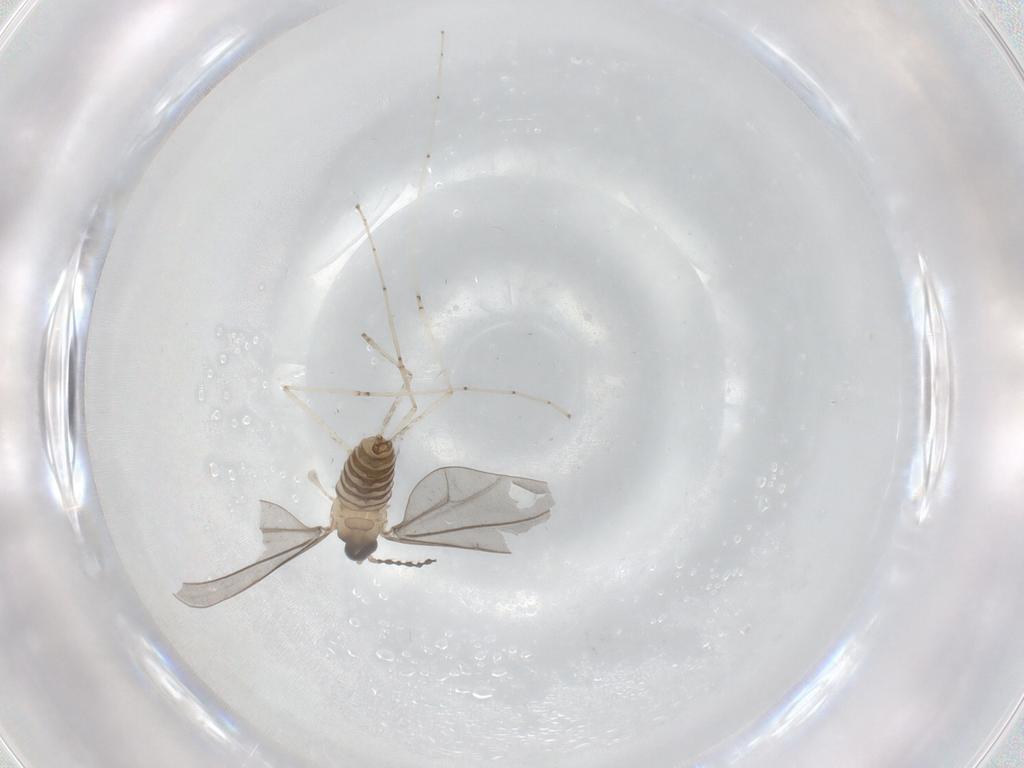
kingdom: Animalia
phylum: Arthropoda
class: Insecta
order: Diptera
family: Cecidomyiidae
